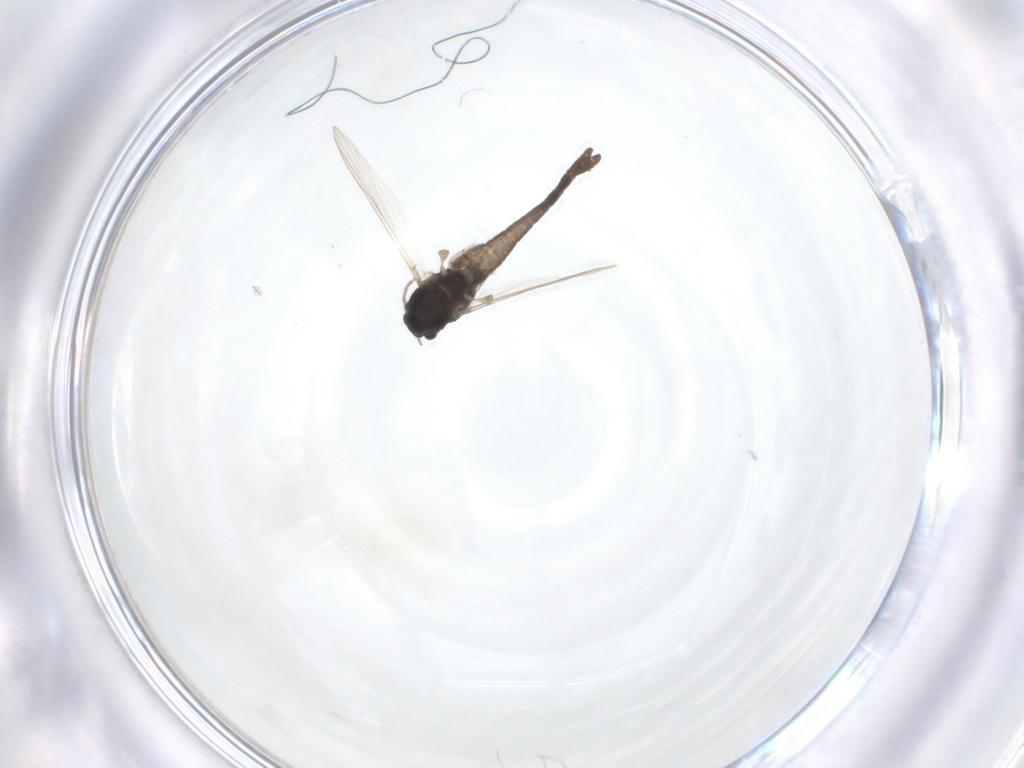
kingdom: Animalia
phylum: Arthropoda
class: Insecta
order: Diptera
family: Chironomidae
